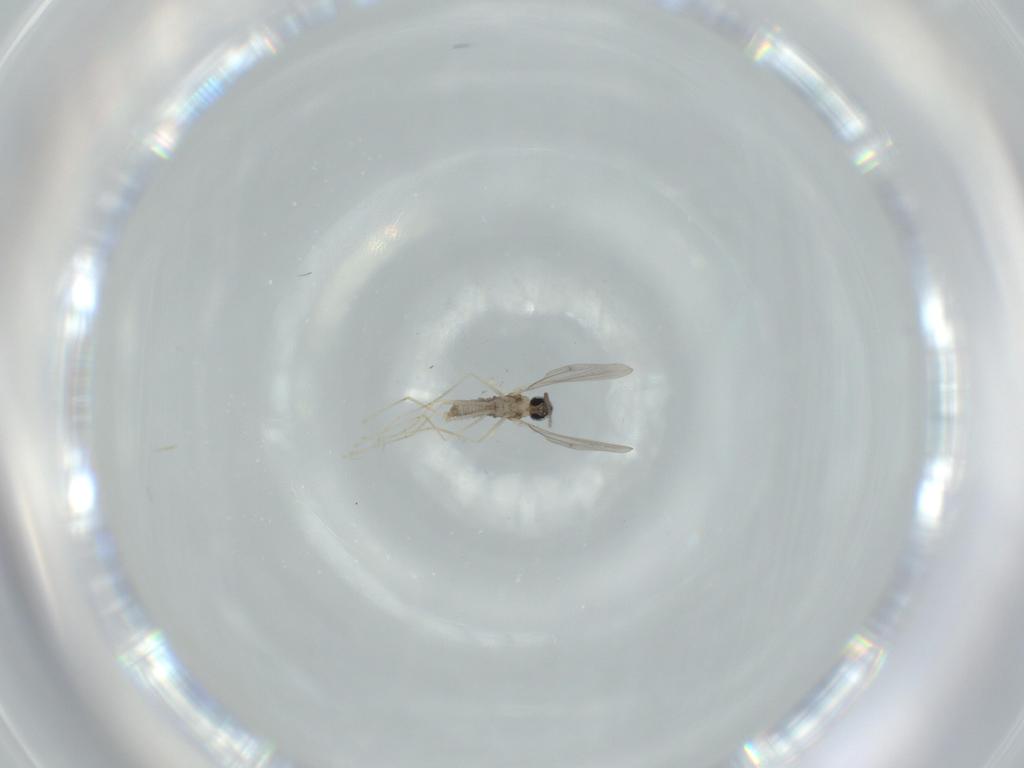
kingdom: Animalia
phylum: Arthropoda
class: Insecta
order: Diptera
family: Cecidomyiidae
